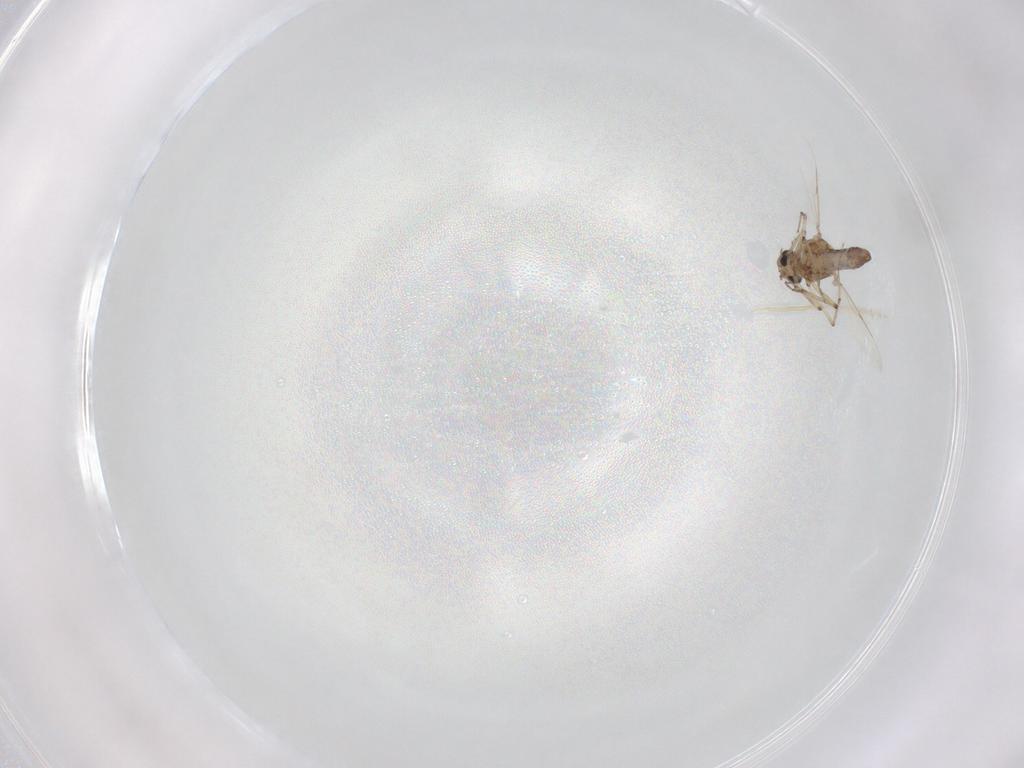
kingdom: Animalia
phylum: Arthropoda
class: Insecta
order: Diptera
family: Ceratopogonidae
